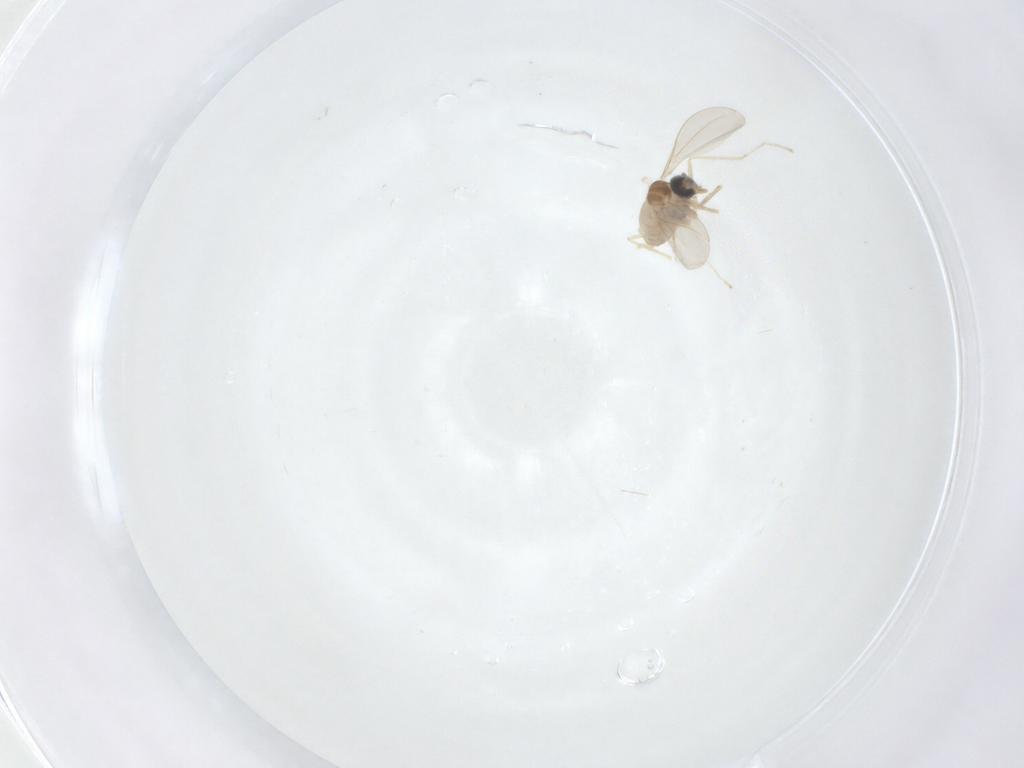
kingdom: Animalia
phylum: Arthropoda
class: Insecta
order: Diptera
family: Cecidomyiidae
